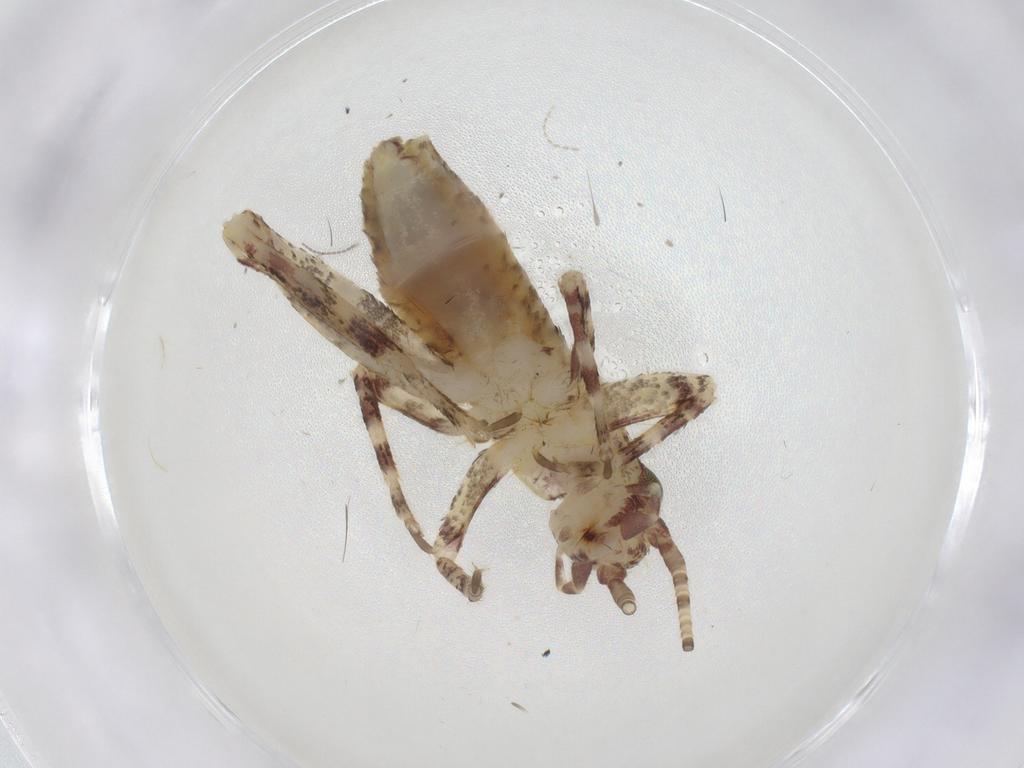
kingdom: Animalia
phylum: Arthropoda
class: Insecta
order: Orthoptera
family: Mogoplistidae
